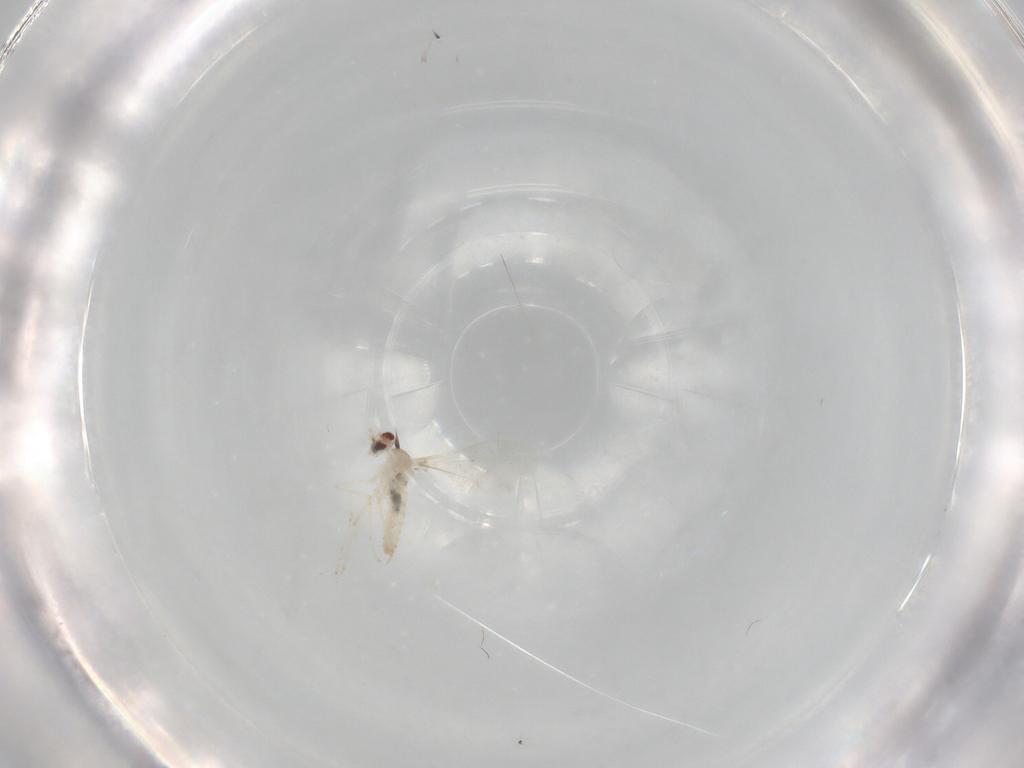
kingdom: Animalia
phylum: Arthropoda
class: Insecta
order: Diptera
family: Cecidomyiidae
